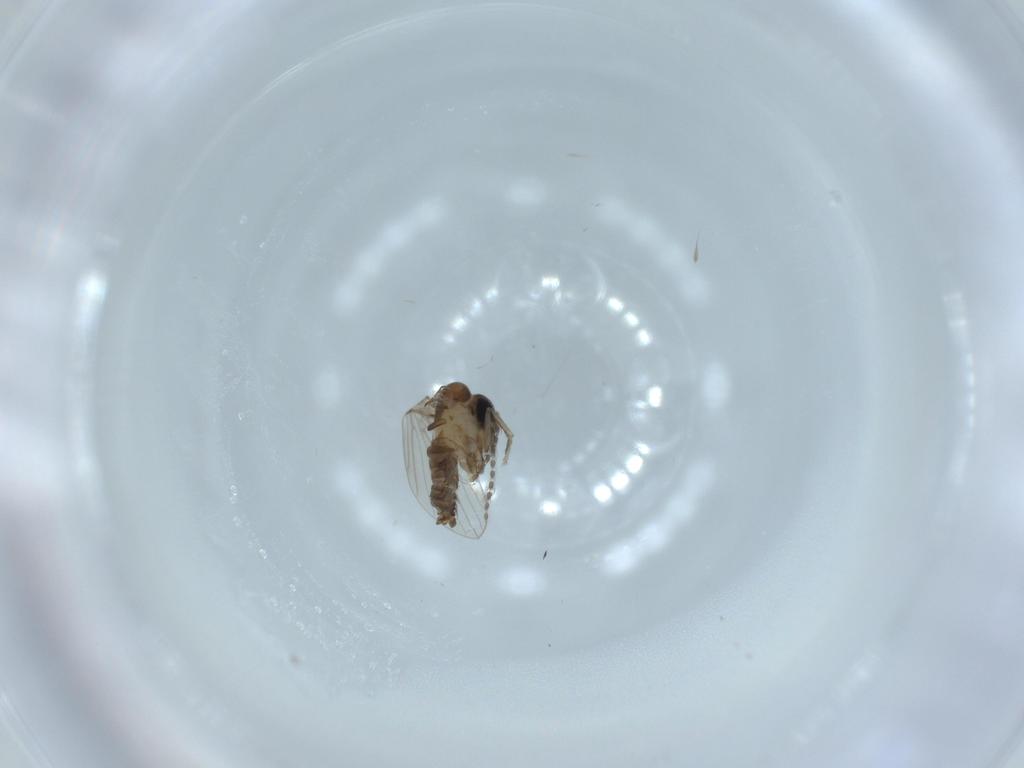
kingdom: Animalia
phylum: Arthropoda
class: Insecta
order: Diptera
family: Psychodidae
